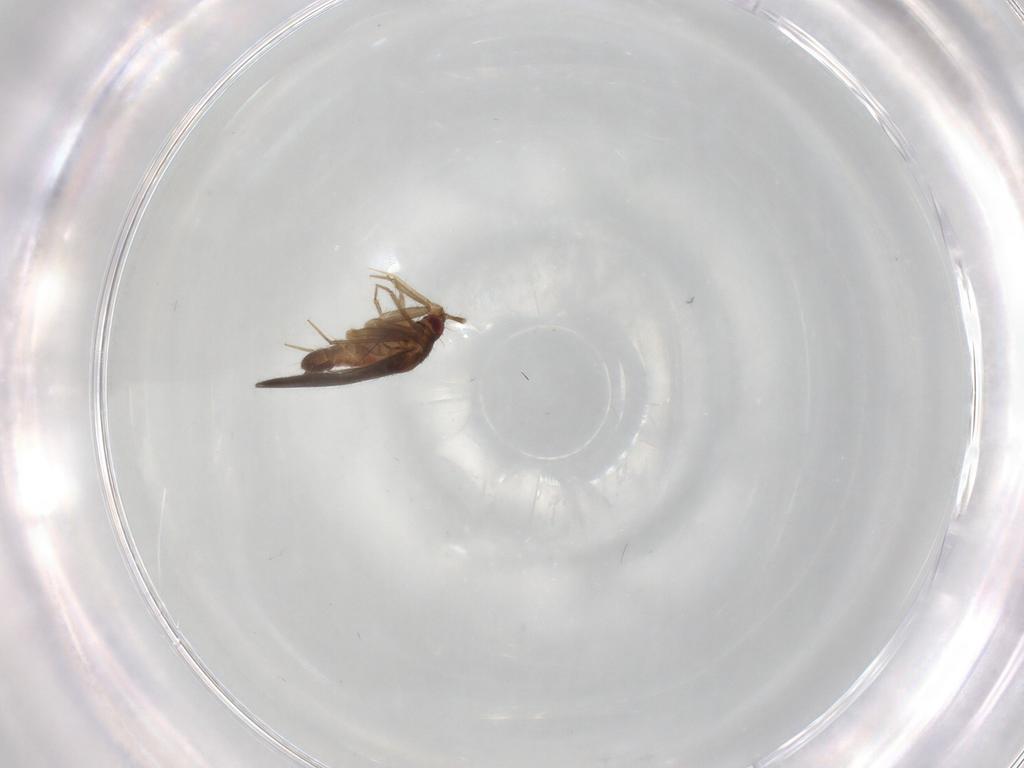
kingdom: Animalia
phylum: Arthropoda
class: Insecta
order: Hemiptera
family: Ceratocombidae
